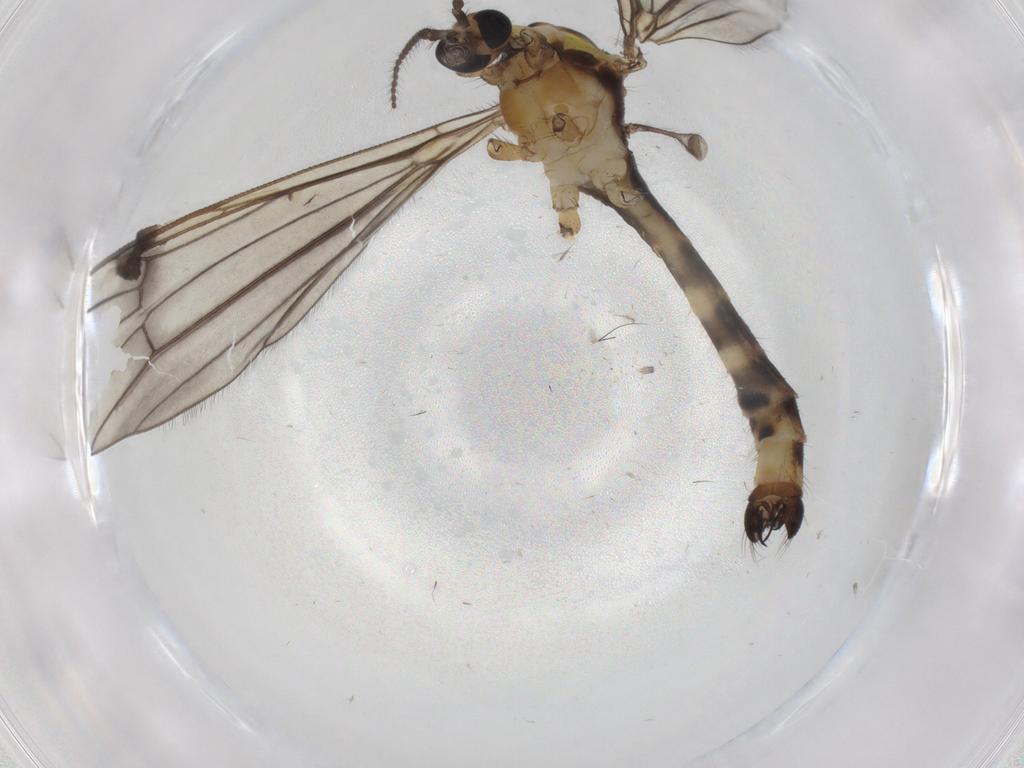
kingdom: Animalia
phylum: Arthropoda
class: Insecta
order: Diptera
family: Limoniidae
